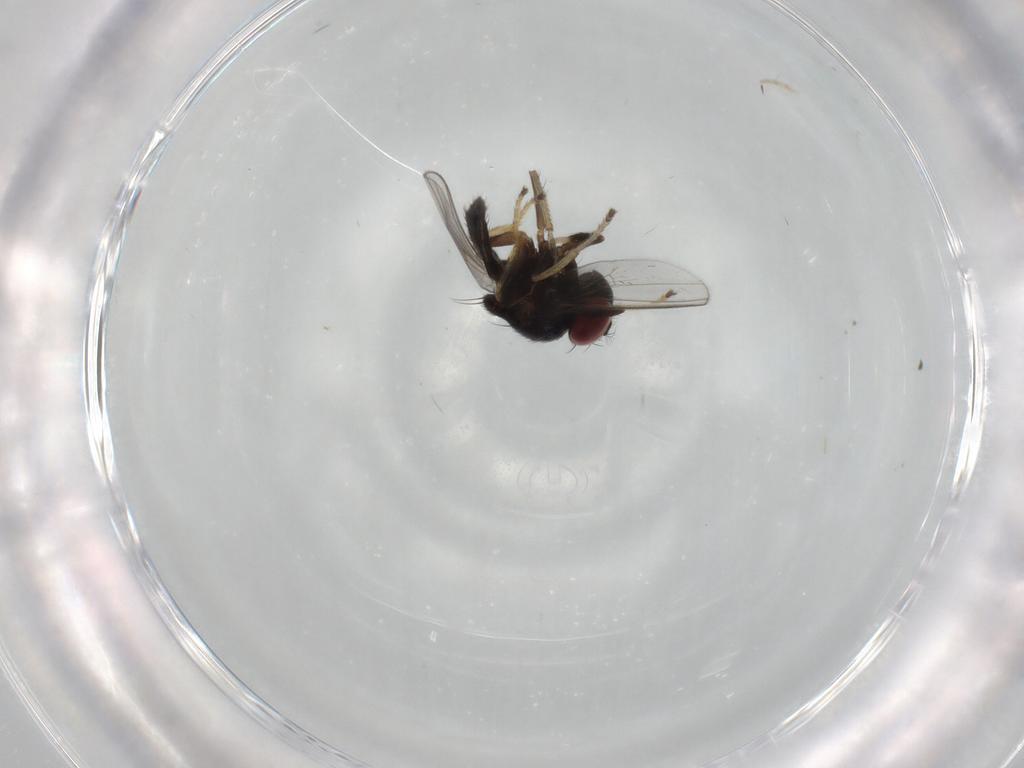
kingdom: Animalia
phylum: Arthropoda
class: Insecta
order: Diptera
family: Ephydridae
